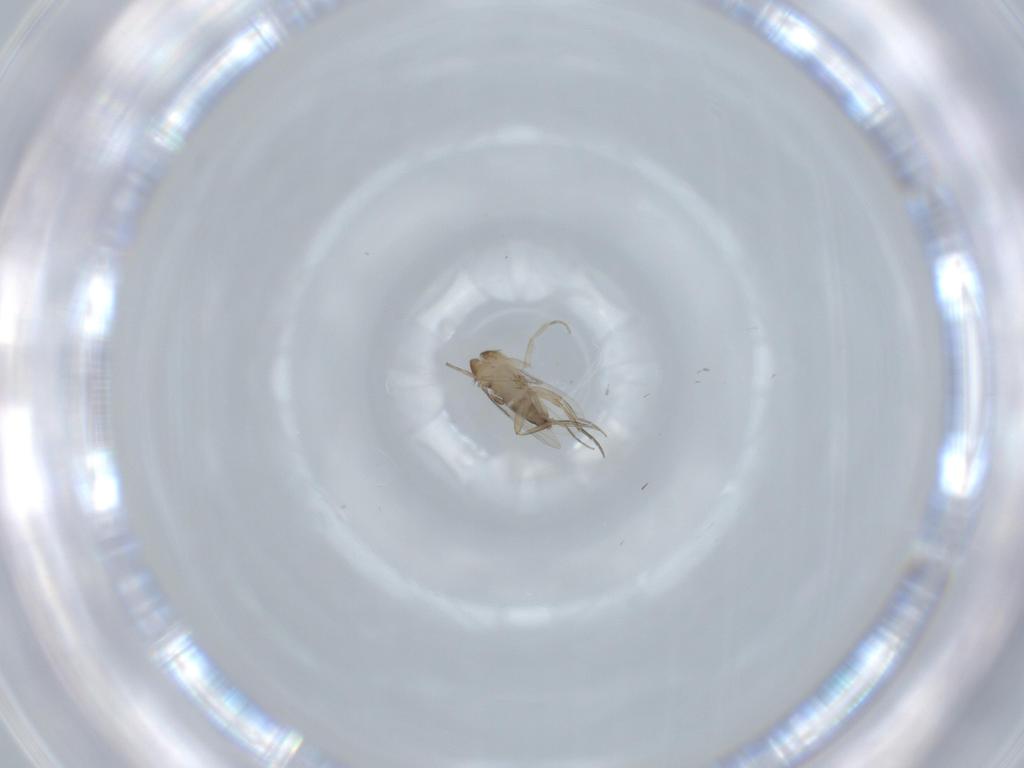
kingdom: Animalia
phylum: Arthropoda
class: Insecta
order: Diptera
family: Phoridae
